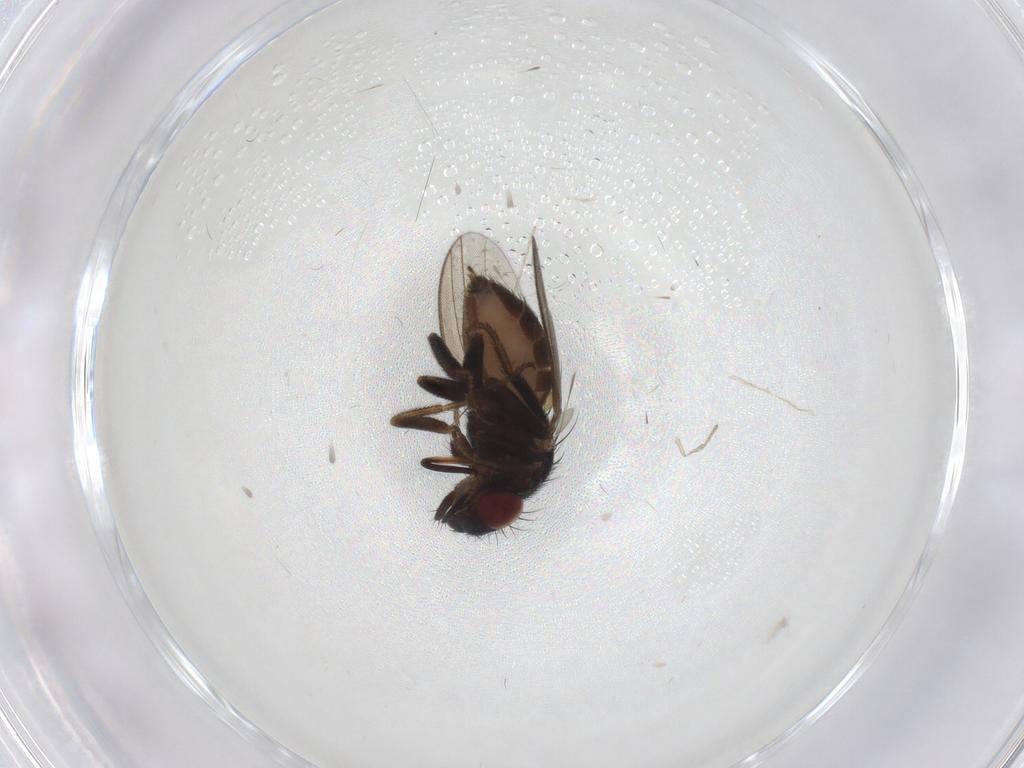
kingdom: Animalia
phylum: Arthropoda
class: Insecta
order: Diptera
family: Milichiidae
